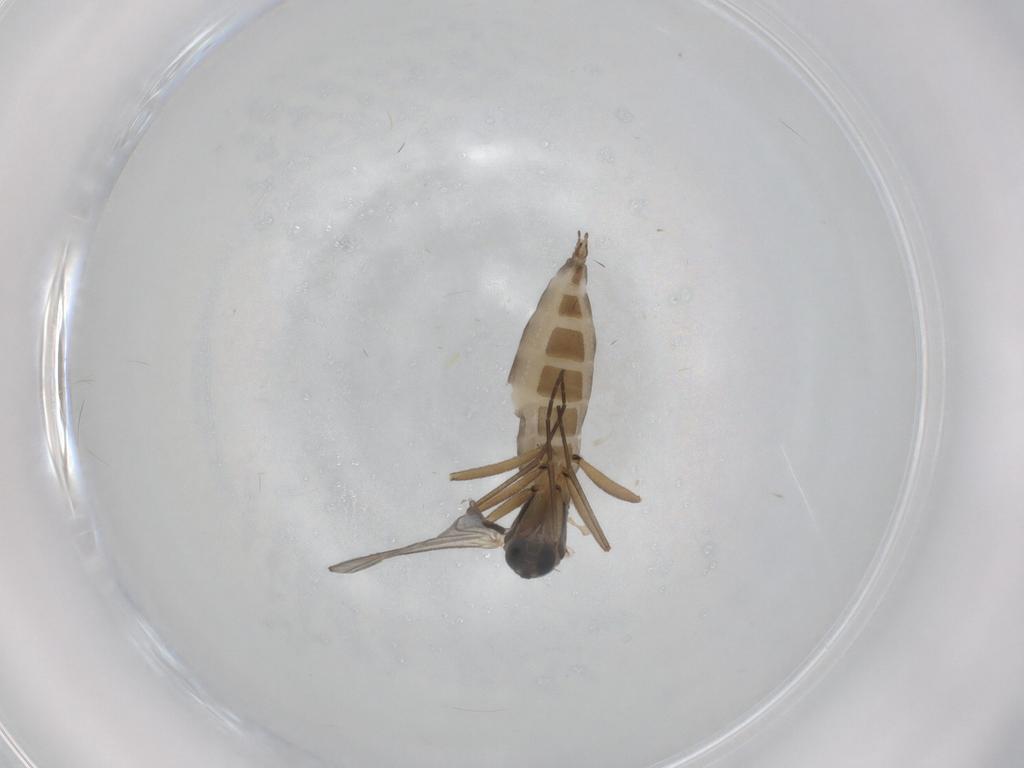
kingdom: Animalia
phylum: Arthropoda
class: Insecta
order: Diptera
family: Sciaridae
